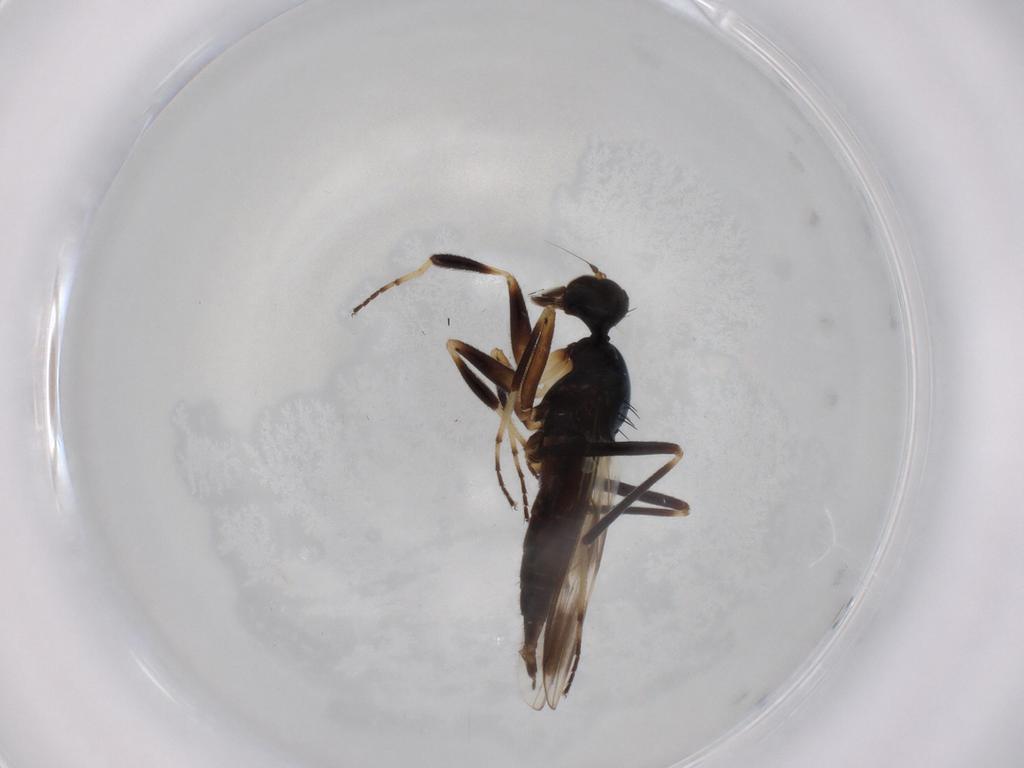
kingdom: Animalia
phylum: Arthropoda
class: Insecta
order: Diptera
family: Hybotidae
